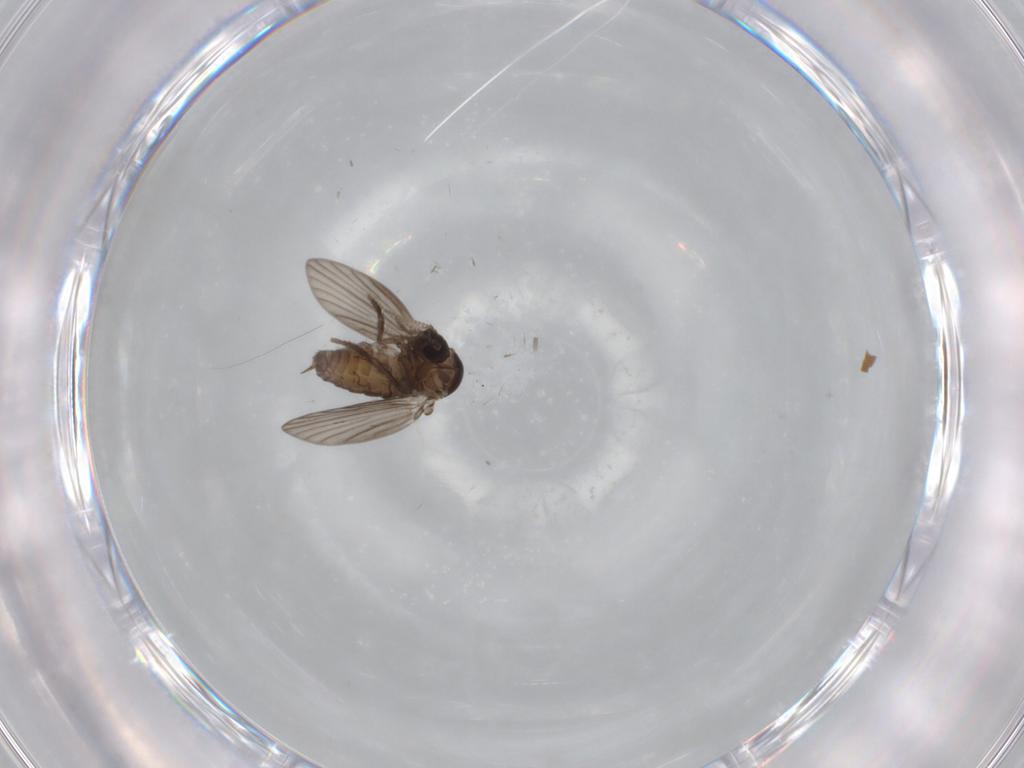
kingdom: Animalia
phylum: Arthropoda
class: Insecta
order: Diptera
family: Psychodidae
